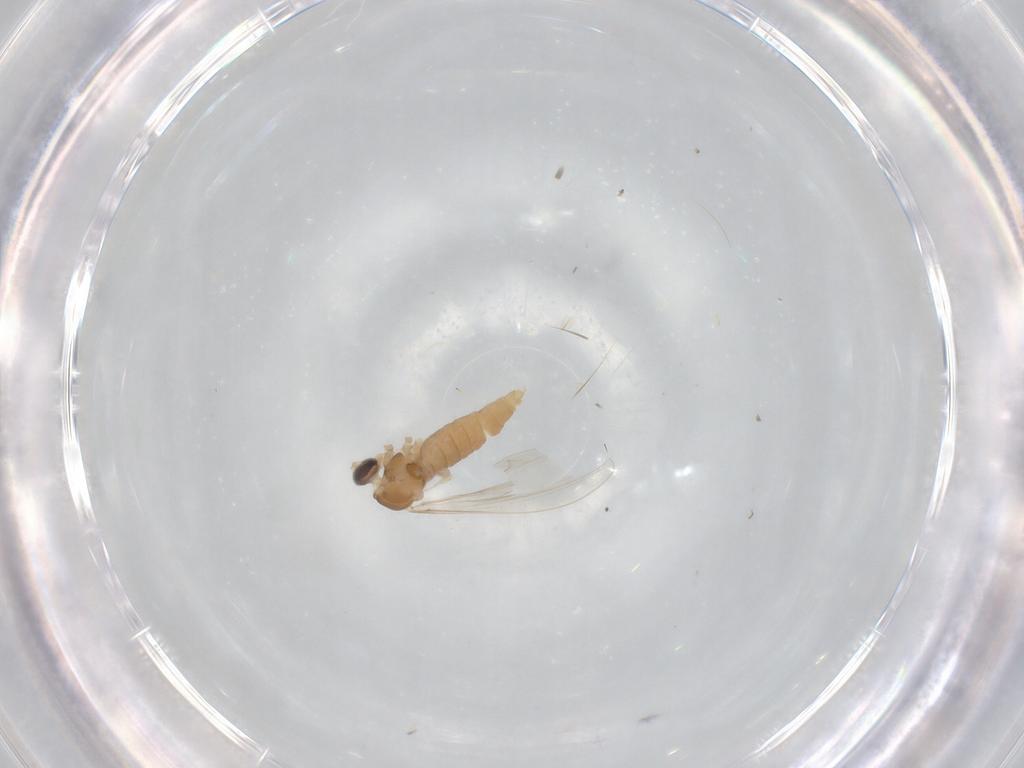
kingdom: Animalia
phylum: Arthropoda
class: Insecta
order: Diptera
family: Cecidomyiidae
